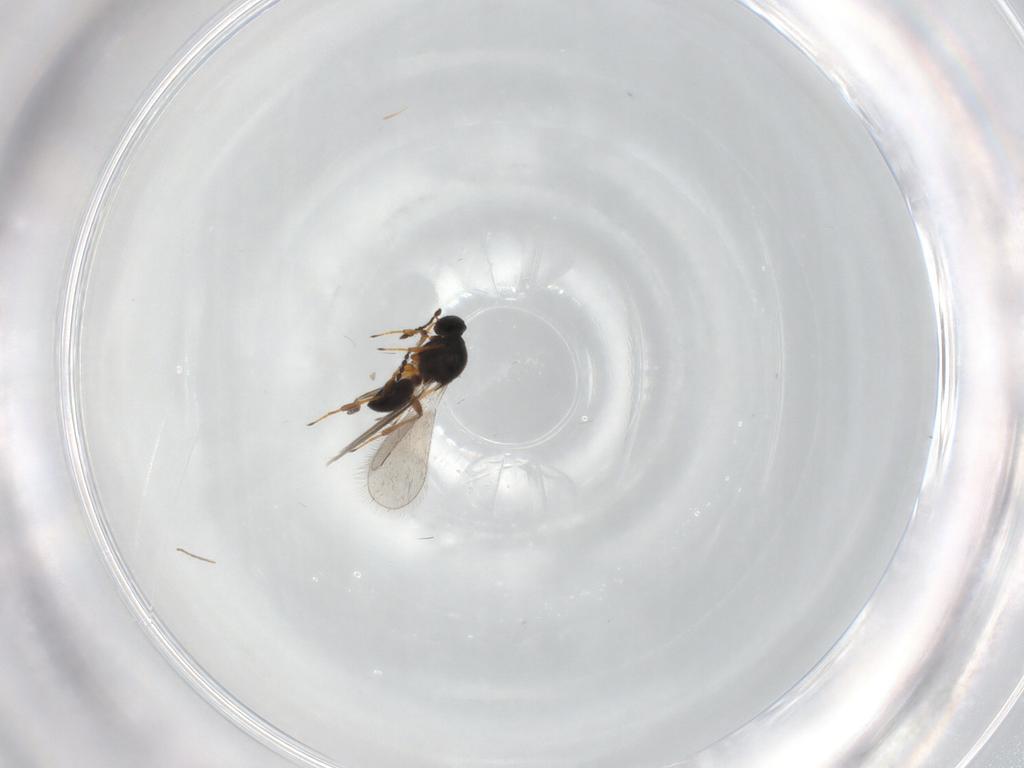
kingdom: Animalia
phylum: Arthropoda
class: Insecta
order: Hymenoptera
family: Platygastridae
